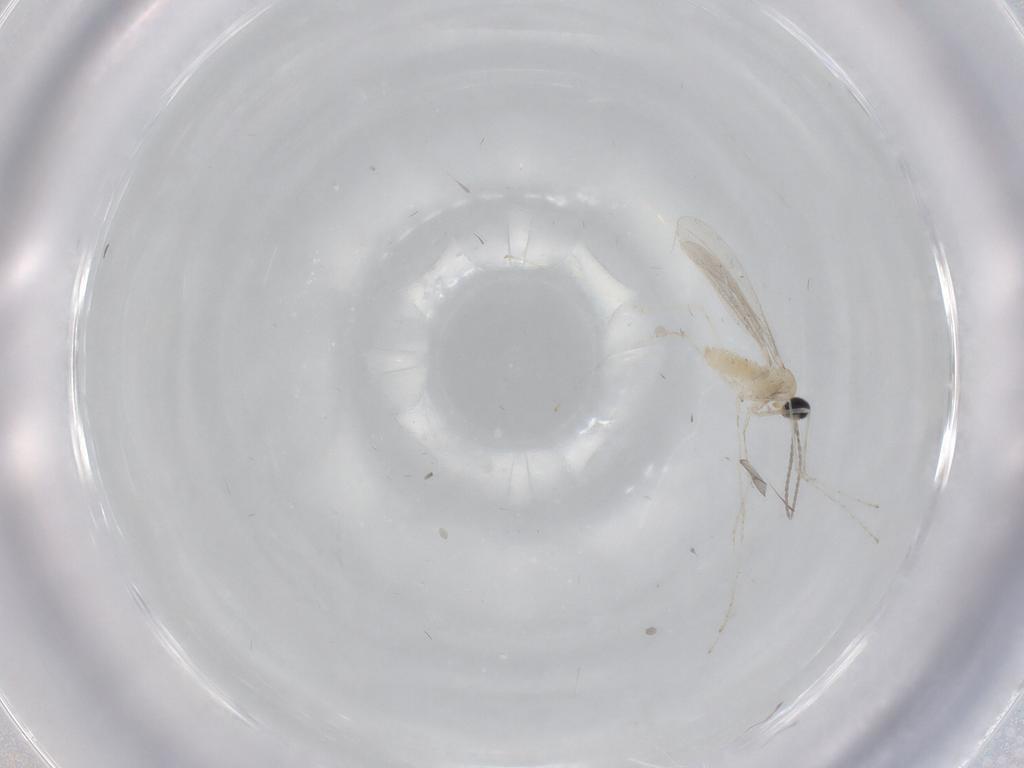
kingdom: Animalia
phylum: Arthropoda
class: Insecta
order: Diptera
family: Cecidomyiidae
